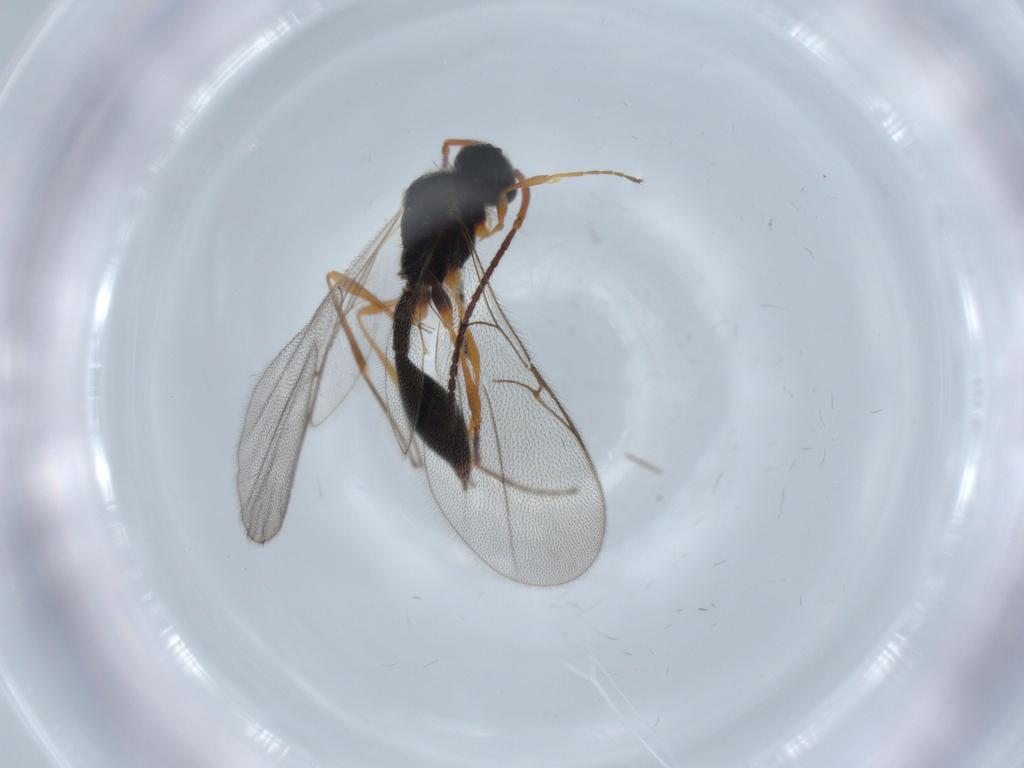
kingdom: Animalia
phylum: Arthropoda
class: Insecta
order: Hymenoptera
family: Diapriidae
